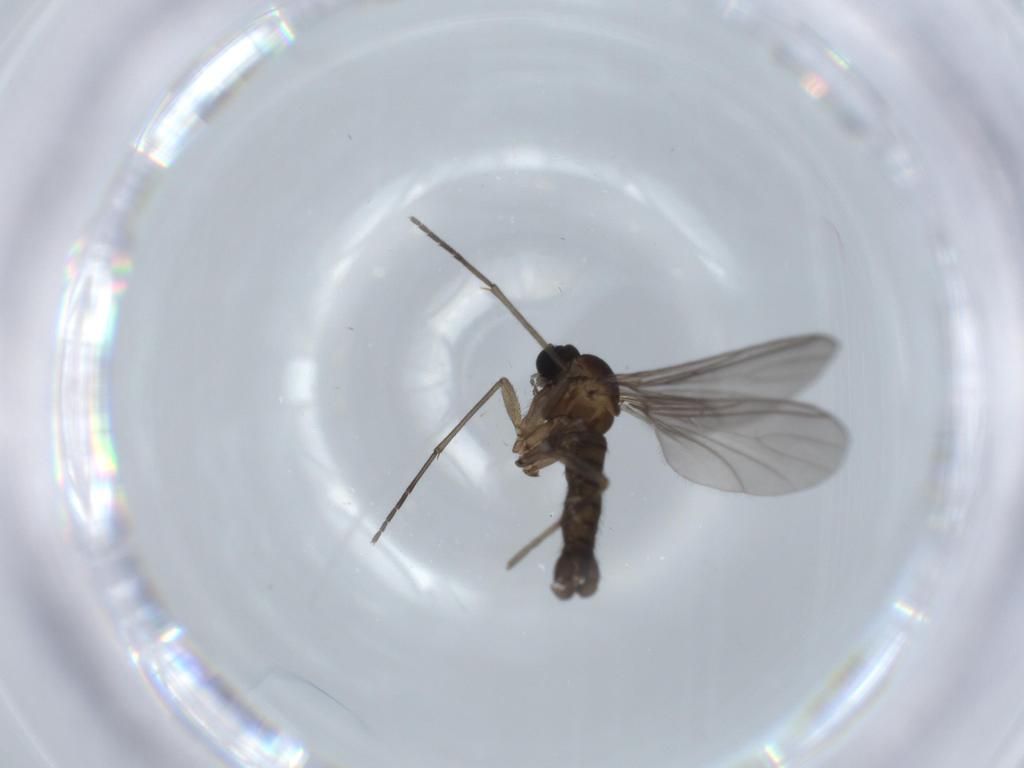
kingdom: Animalia
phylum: Arthropoda
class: Insecta
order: Diptera
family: Sciaridae
